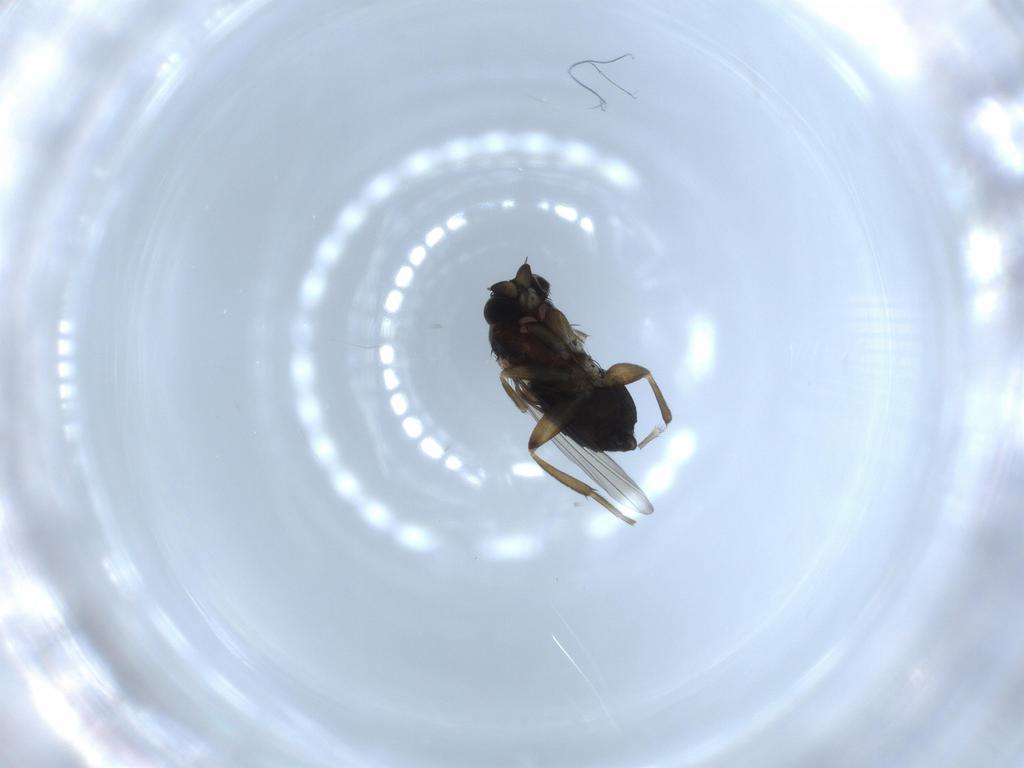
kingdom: Animalia
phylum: Arthropoda
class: Insecta
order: Diptera
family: Phoridae
